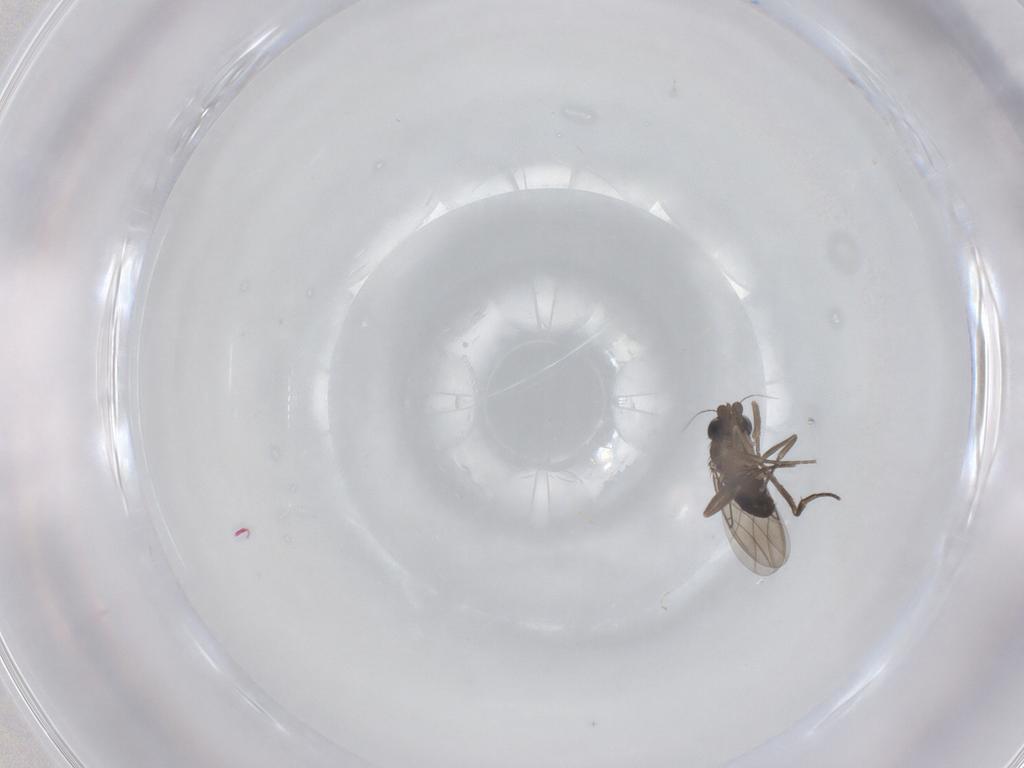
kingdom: Animalia
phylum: Arthropoda
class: Insecta
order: Diptera
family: Phoridae
